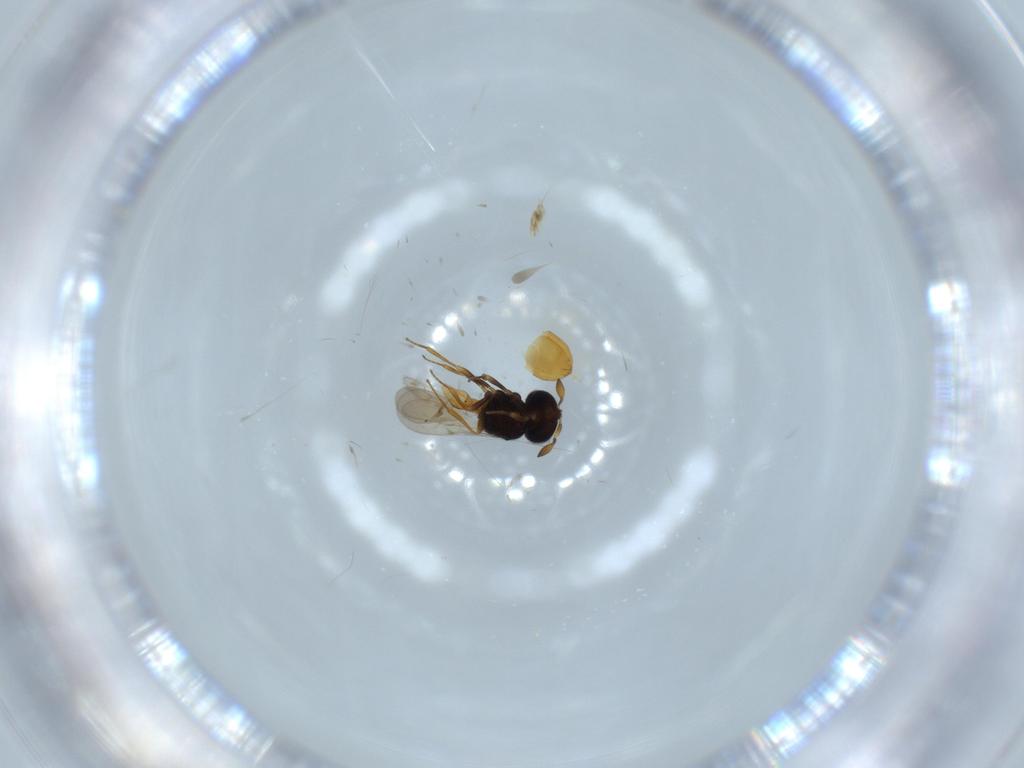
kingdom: Animalia
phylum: Arthropoda
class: Insecta
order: Hymenoptera
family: Scelionidae
